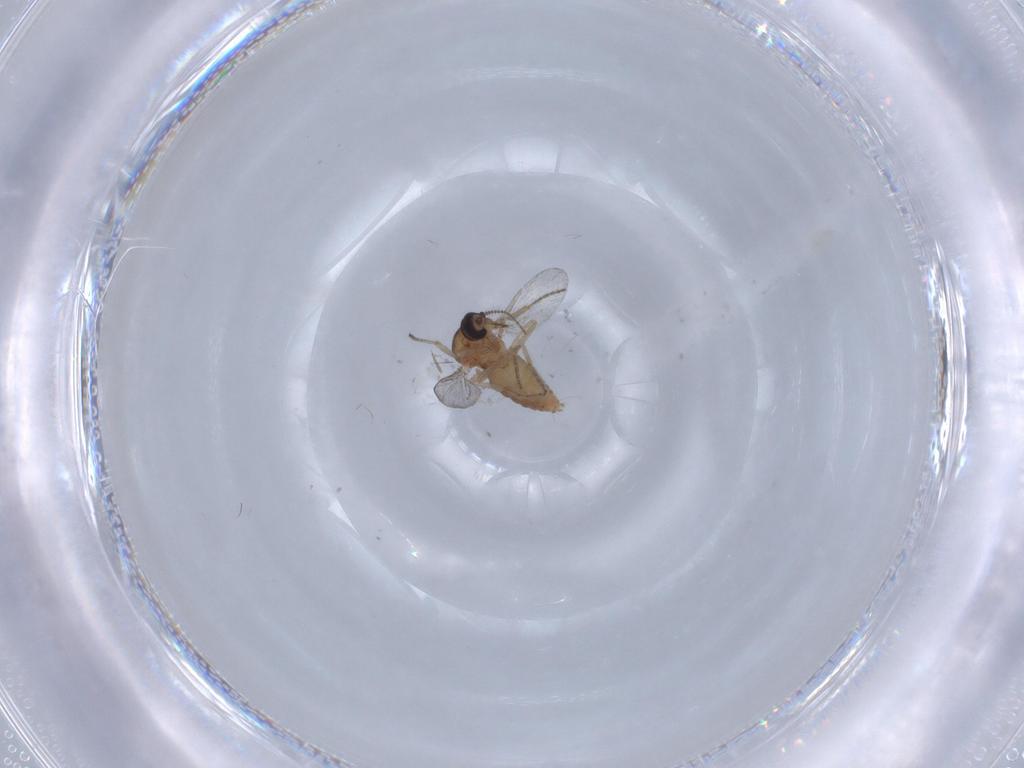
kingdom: Animalia
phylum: Arthropoda
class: Insecta
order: Diptera
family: Ceratopogonidae
